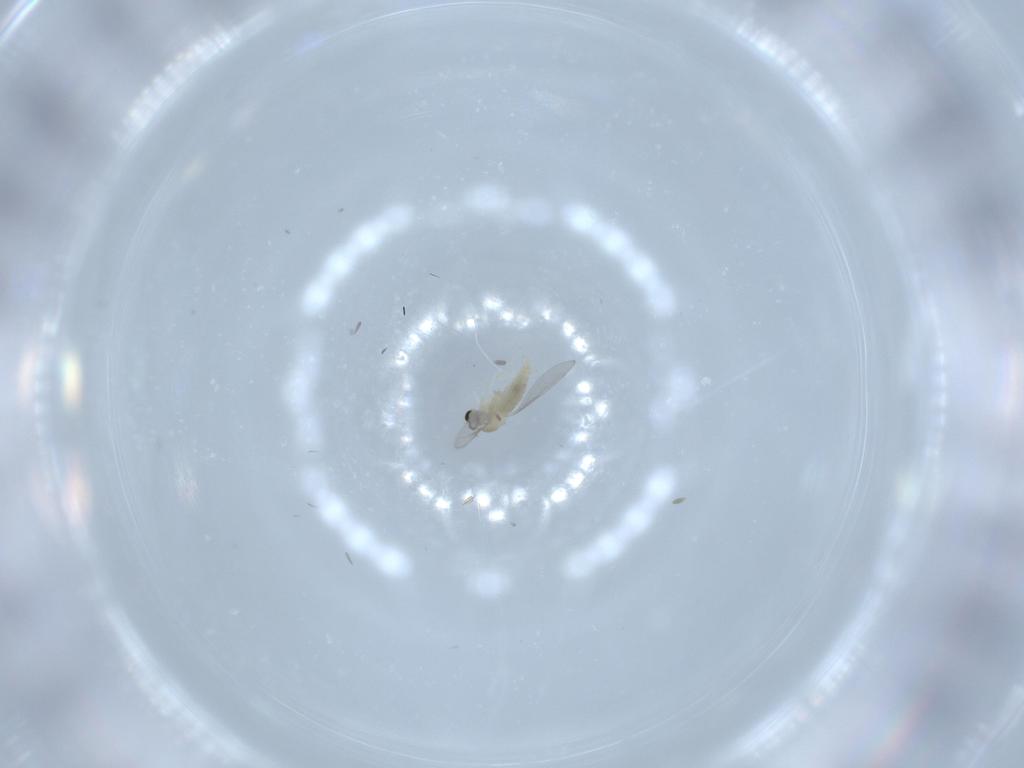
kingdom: Animalia
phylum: Arthropoda
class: Insecta
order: Diptera
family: Cecidomyiidae
